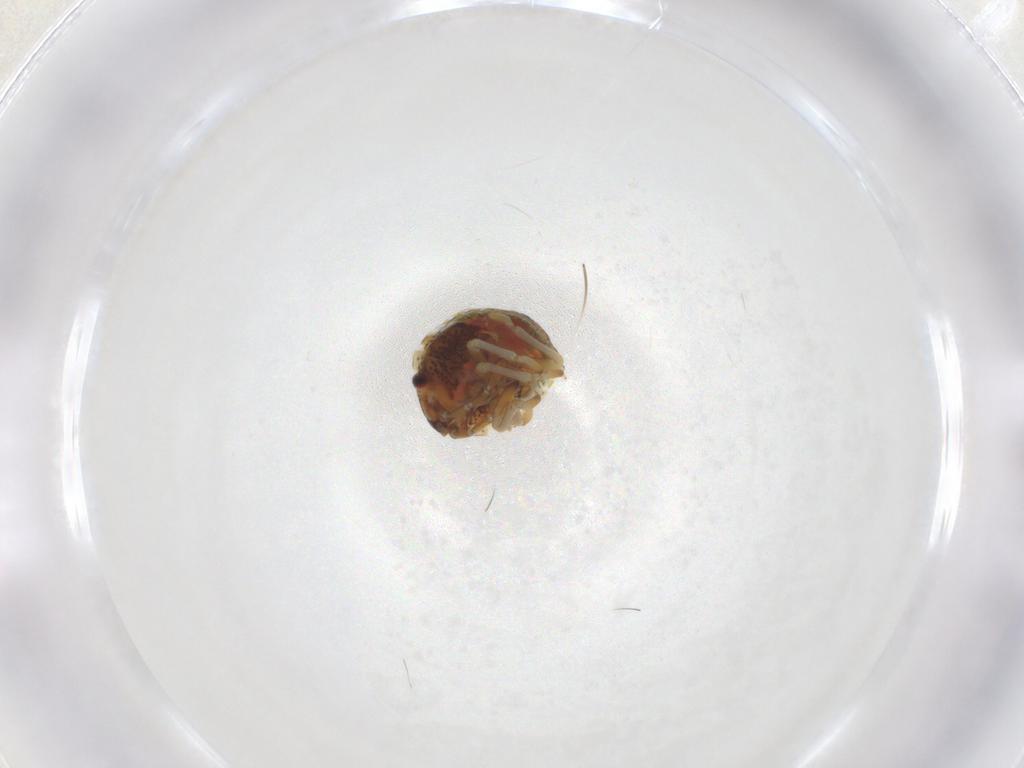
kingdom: Animalia
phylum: Arthropoda
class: Insecta
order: Hemiptera
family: Acanthosomatidae
